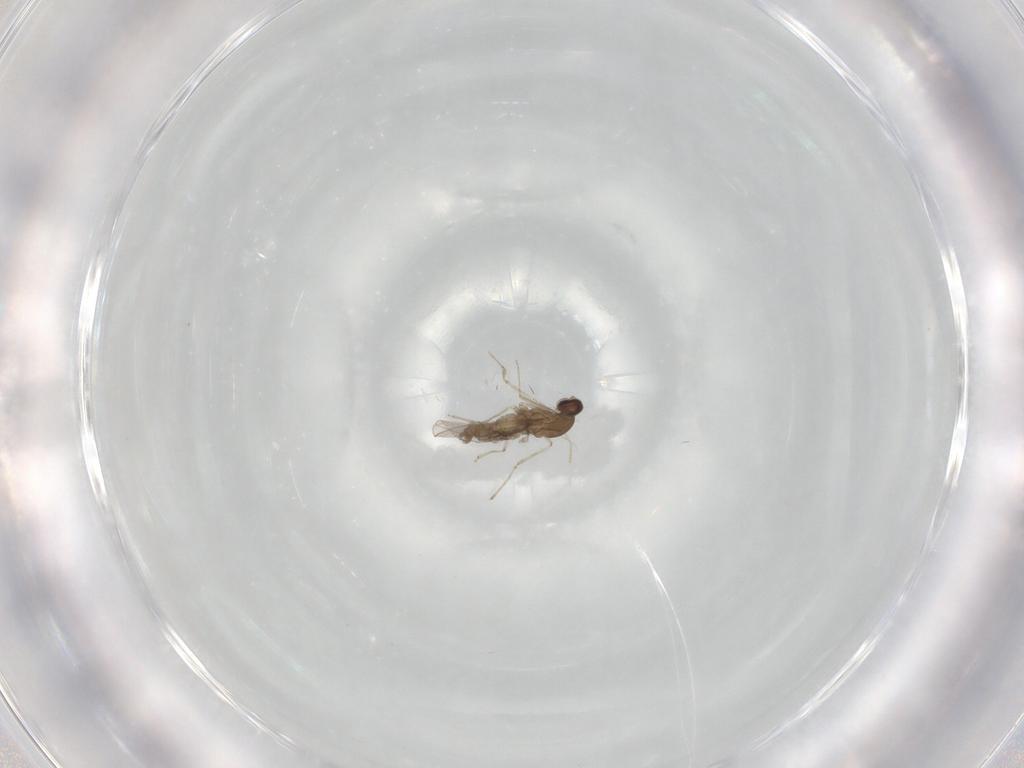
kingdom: Animalia
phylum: Arthropoda
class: Insecta
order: Diptera
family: Cecidomyiidae
